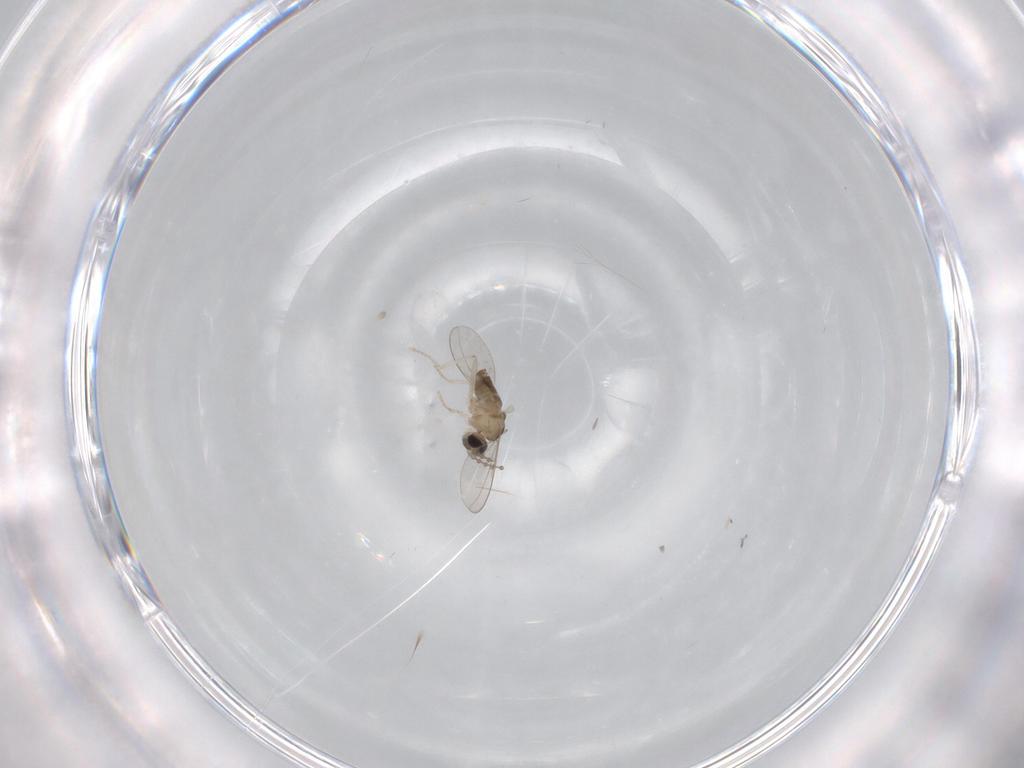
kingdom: Animalia
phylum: Arthropoda
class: Insecta
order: Diptera
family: Cecidomyiidae
